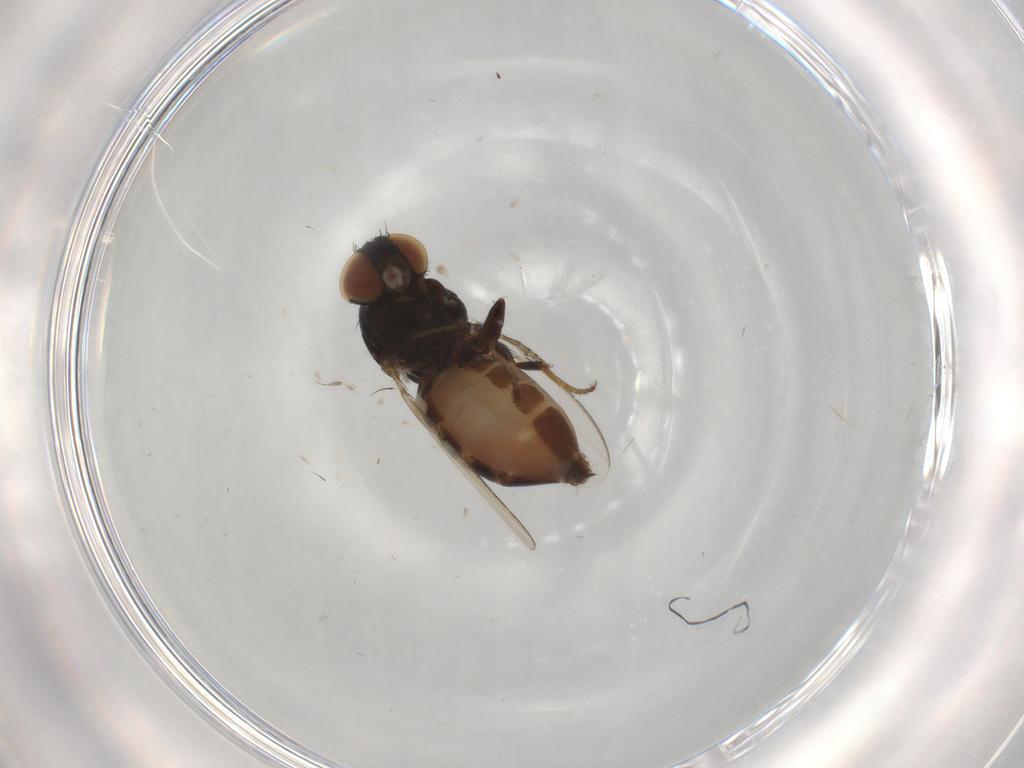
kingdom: Animalia
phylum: Arthropoda
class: Insecta
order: Diptera
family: Milichiidae
